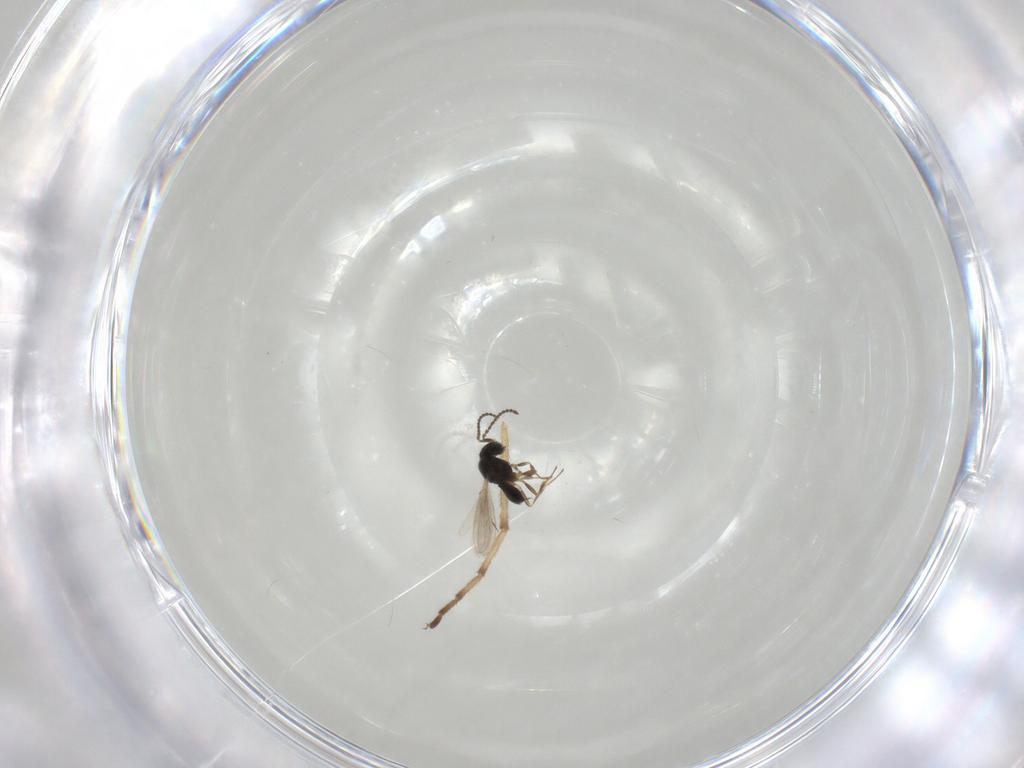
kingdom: Animalia
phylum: Arthropoda
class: Insecta
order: Hymenoptera
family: Scelionidae
